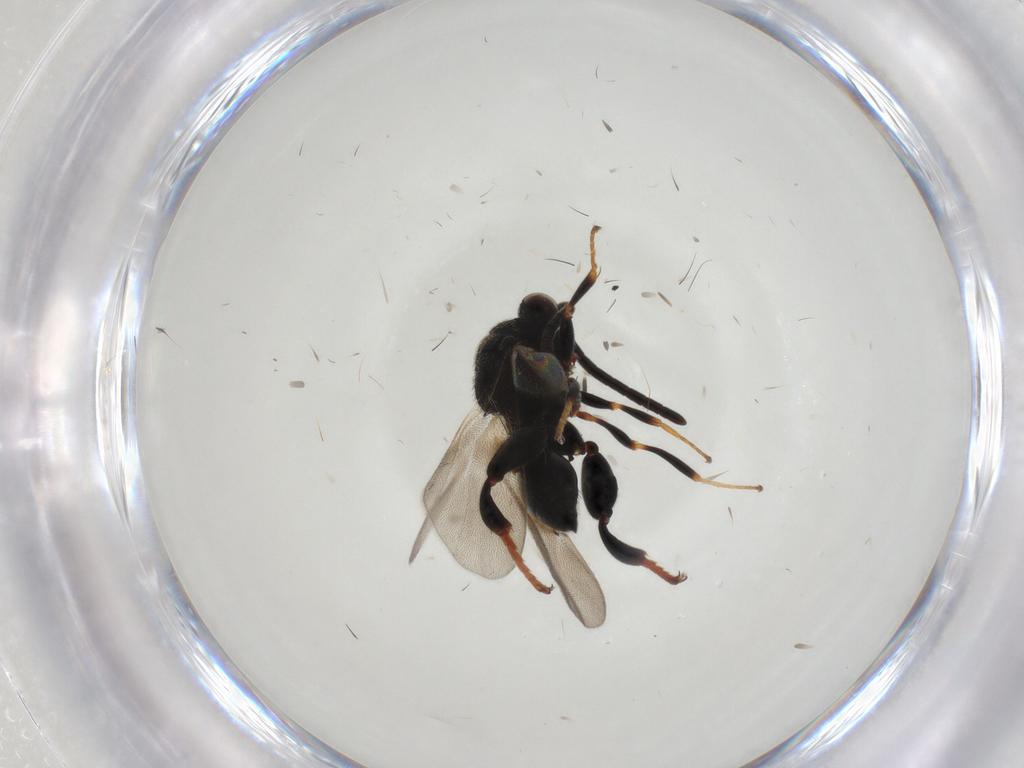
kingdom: Animalia
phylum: Arthropoda
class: Insecta
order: Hymenoptera
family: Chalcididae
